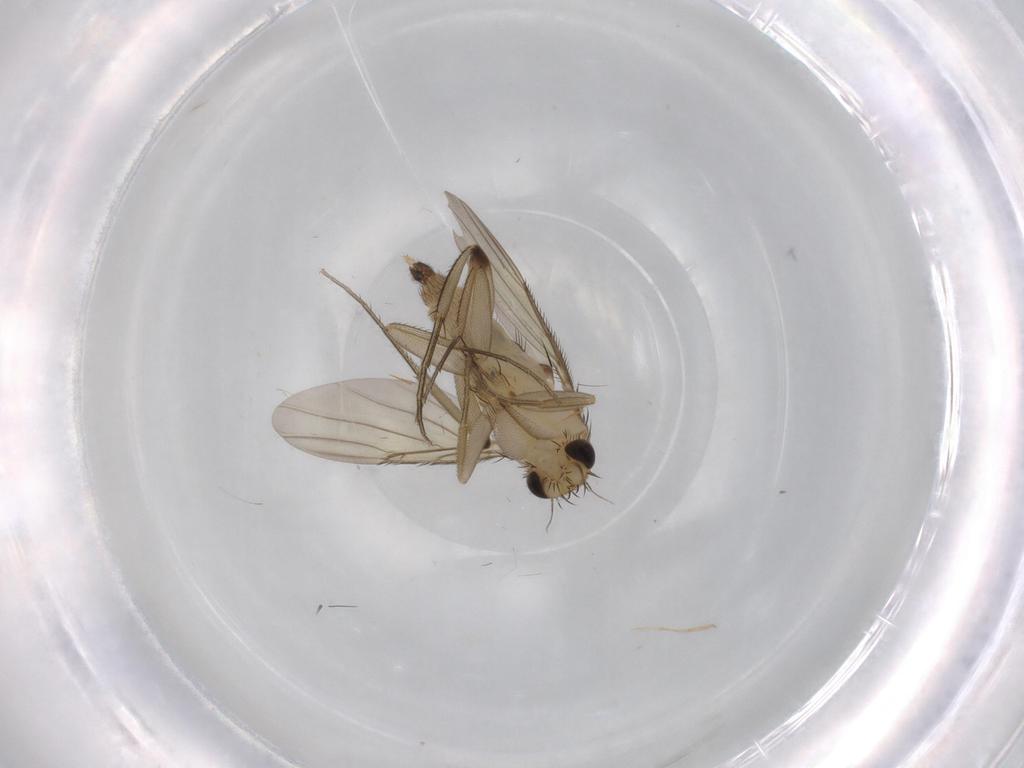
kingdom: Animalia
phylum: Arthropoda
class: Insecta
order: Diptera
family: Phoridae
